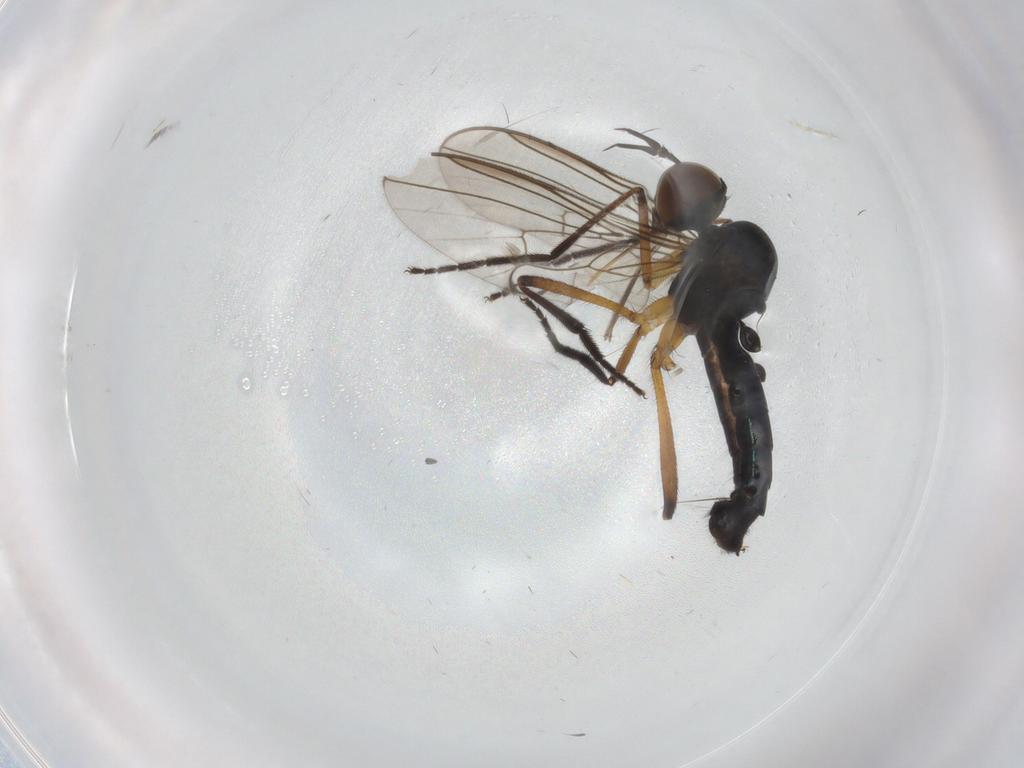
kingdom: Animalia
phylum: Arthropoda
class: Insecta
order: Diptera
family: Empididae
